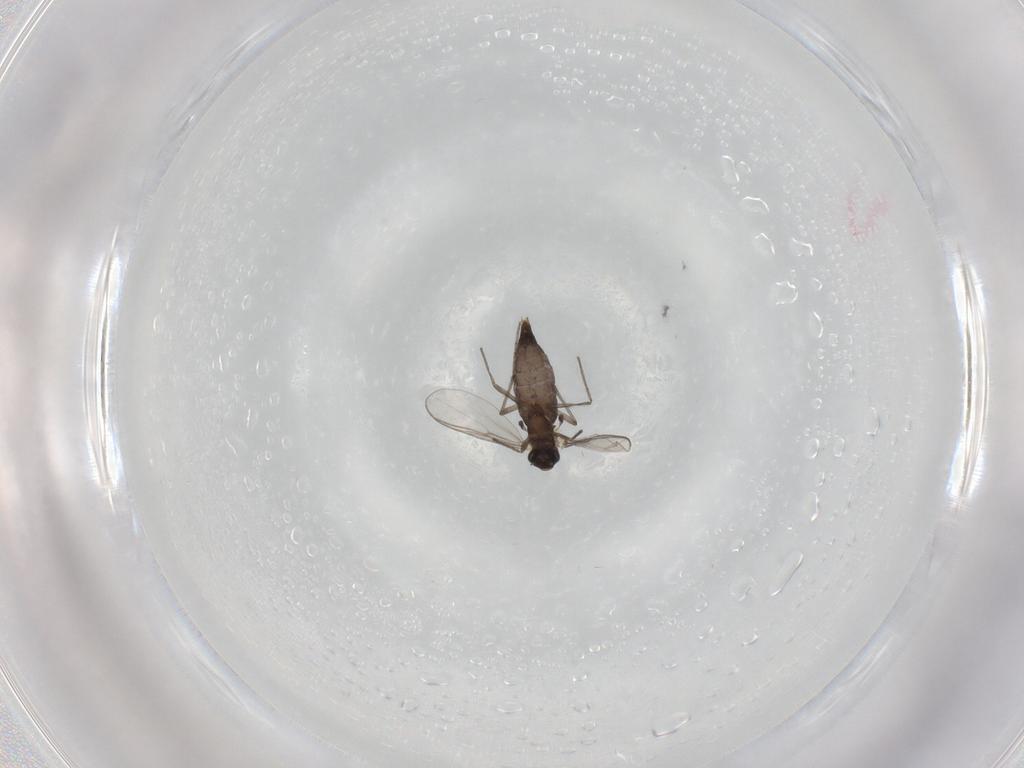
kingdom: Animalia
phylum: Arthropoda
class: Insecta
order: Diptera
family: Chironomidae
